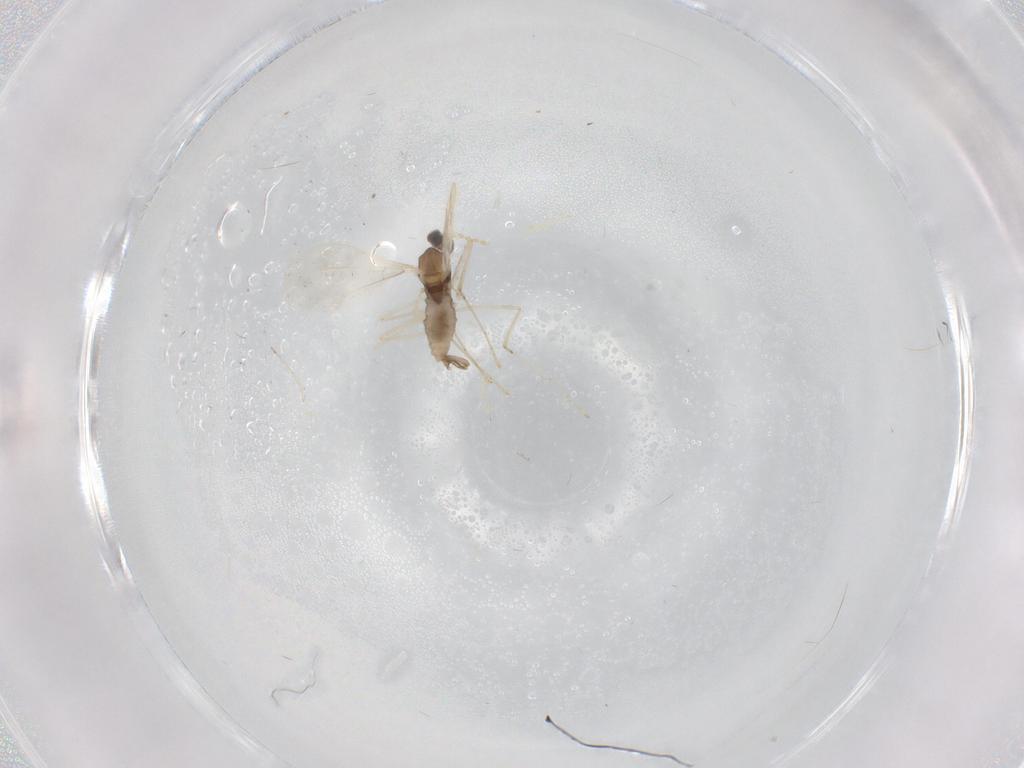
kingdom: Animalia
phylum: Arthropoda
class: Insecta
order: Diptera
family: Cecidomyiidae
